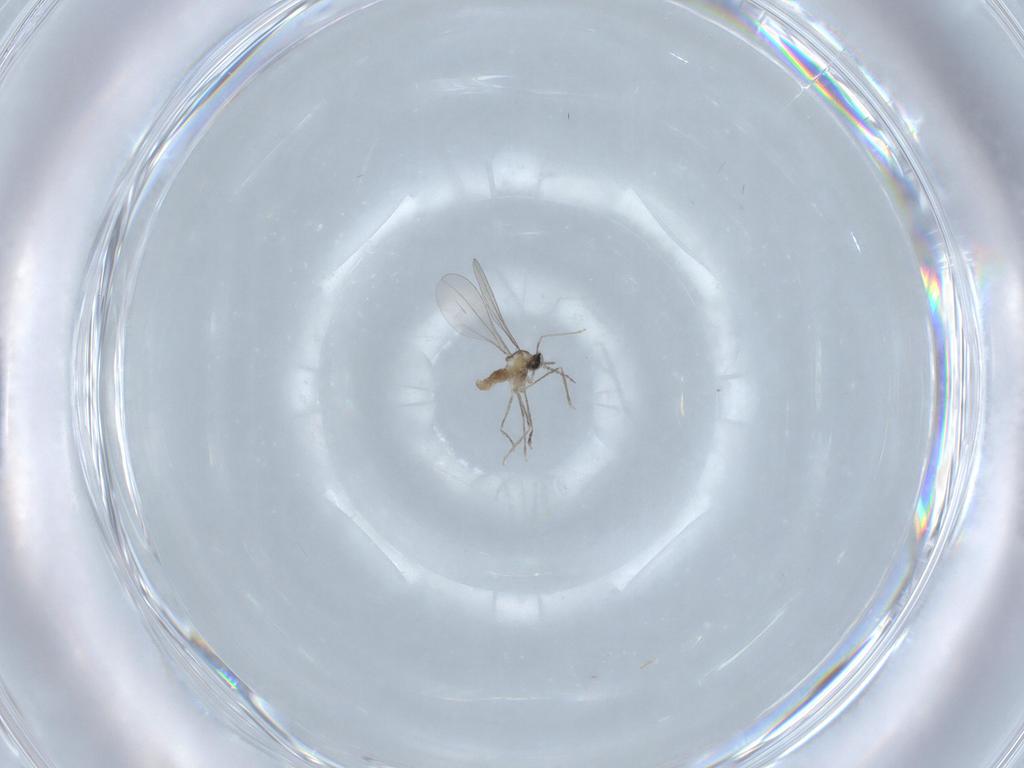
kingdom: Animalia
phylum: Arthropoda
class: Insecta
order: Diptera
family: Cecidomyiidae
